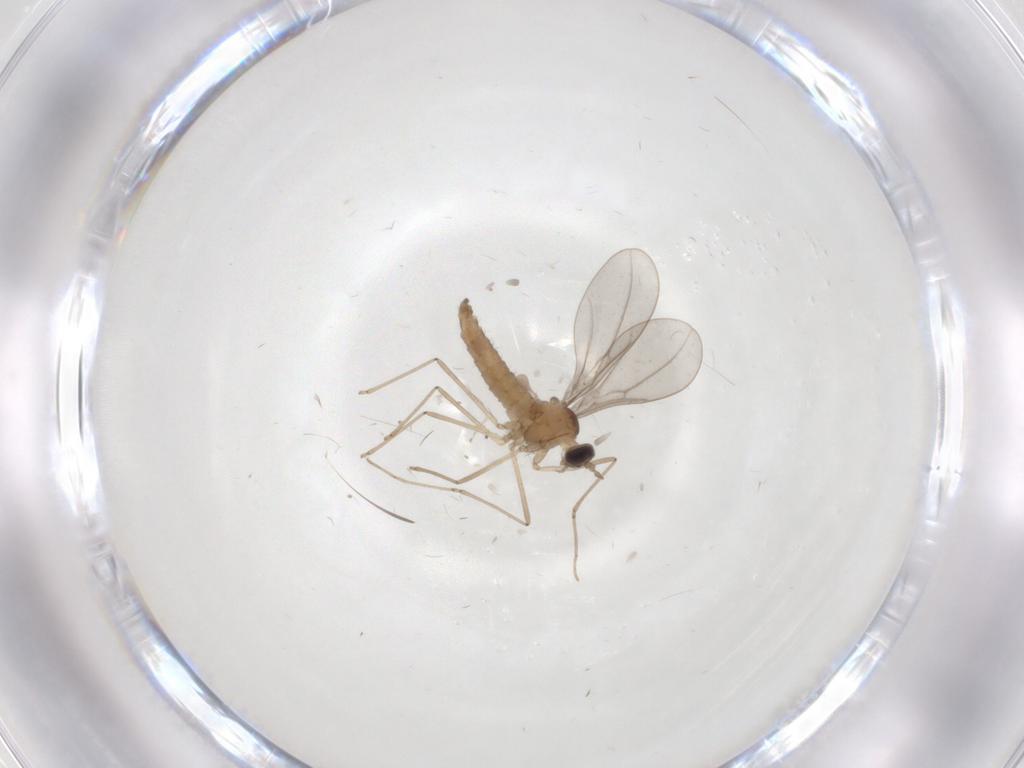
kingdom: Animalia
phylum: Arthropoda
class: Insecta
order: Diptera
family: Cecidomyiidae
